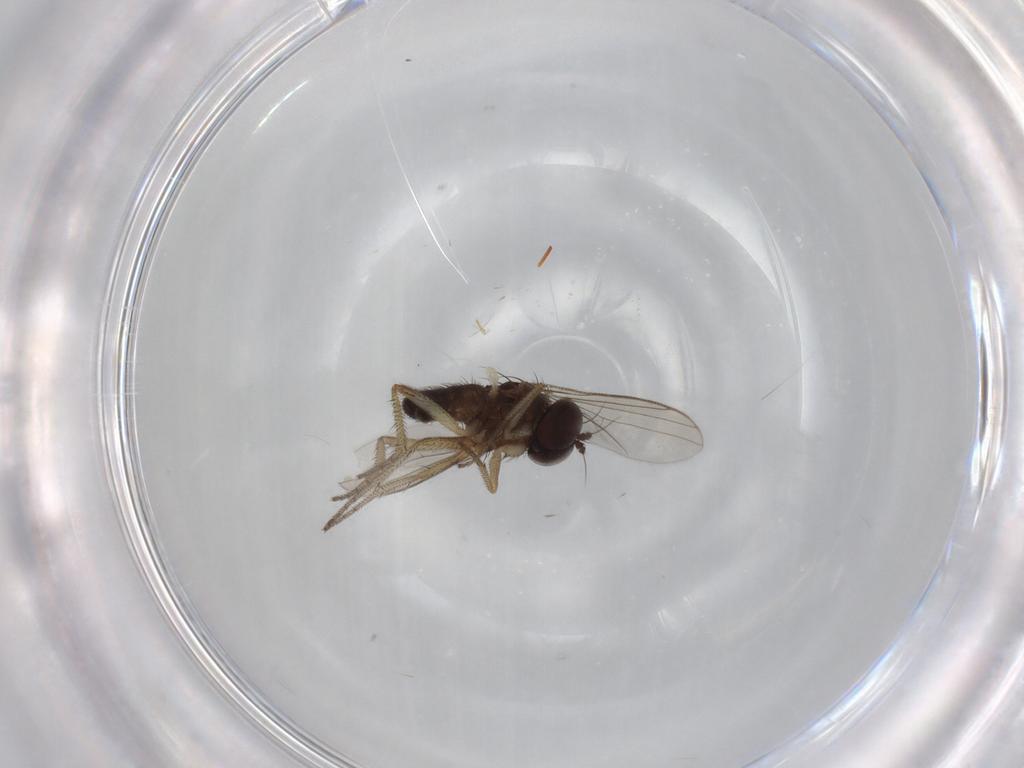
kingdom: Animalia
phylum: Arthropoda
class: Insecta
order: Diptera
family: Dolichopodidae
